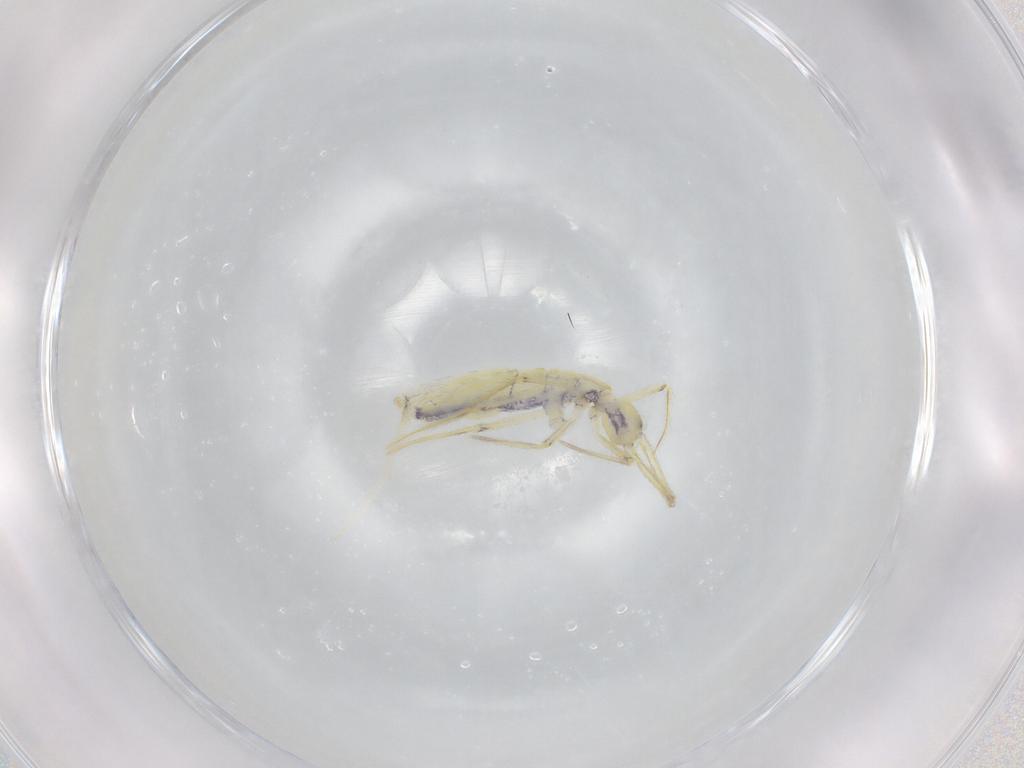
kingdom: Animalia
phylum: Arthropoda
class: Collembola
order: Entomobryomorpha
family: Entomobryidae
